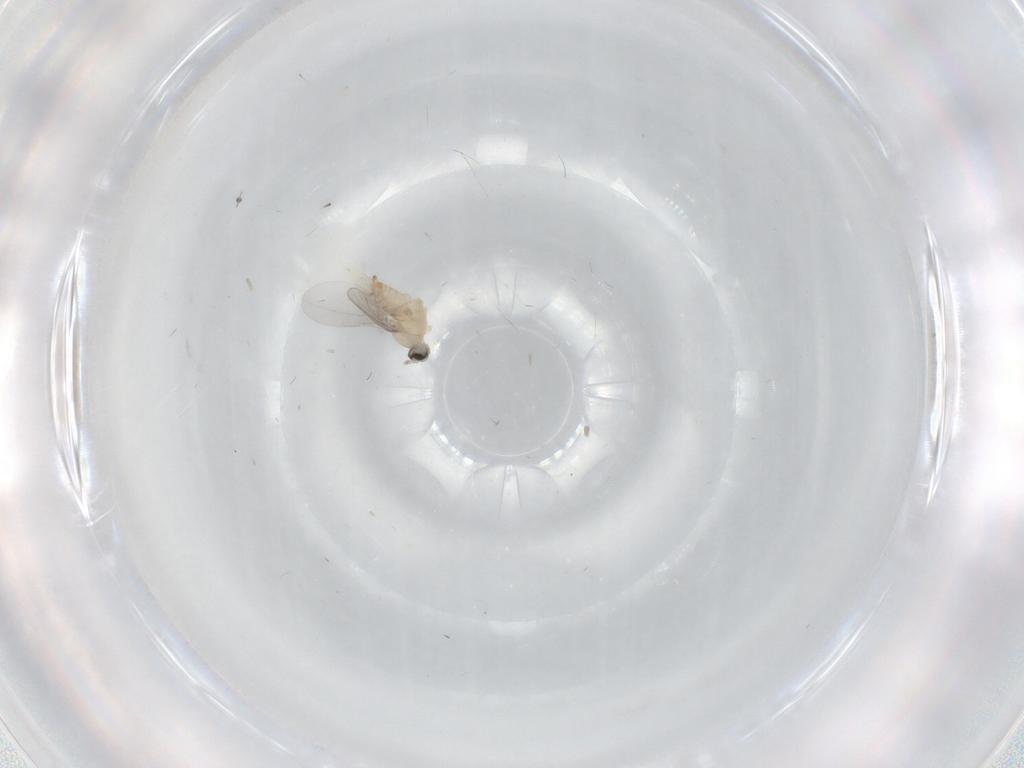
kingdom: Animalia
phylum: Arthropoda
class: Insecta
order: Diptera
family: Cecidomyiidae
